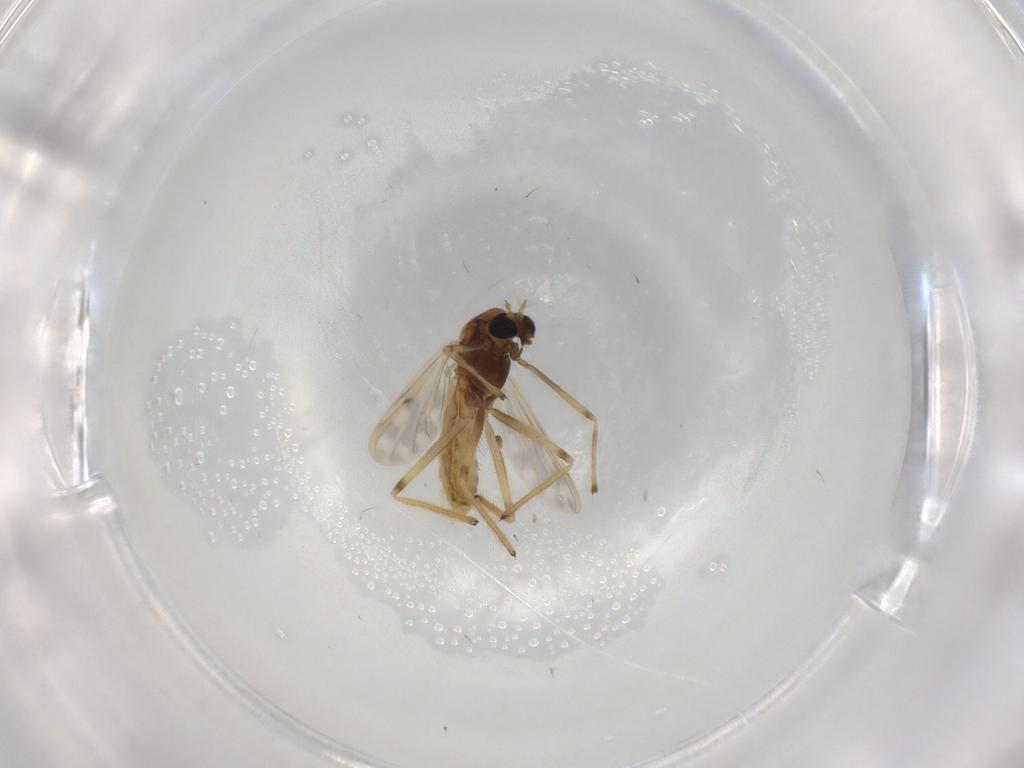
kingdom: Animalia
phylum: Arthropoda
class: Insecta
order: Diptera
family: Chironomidae
